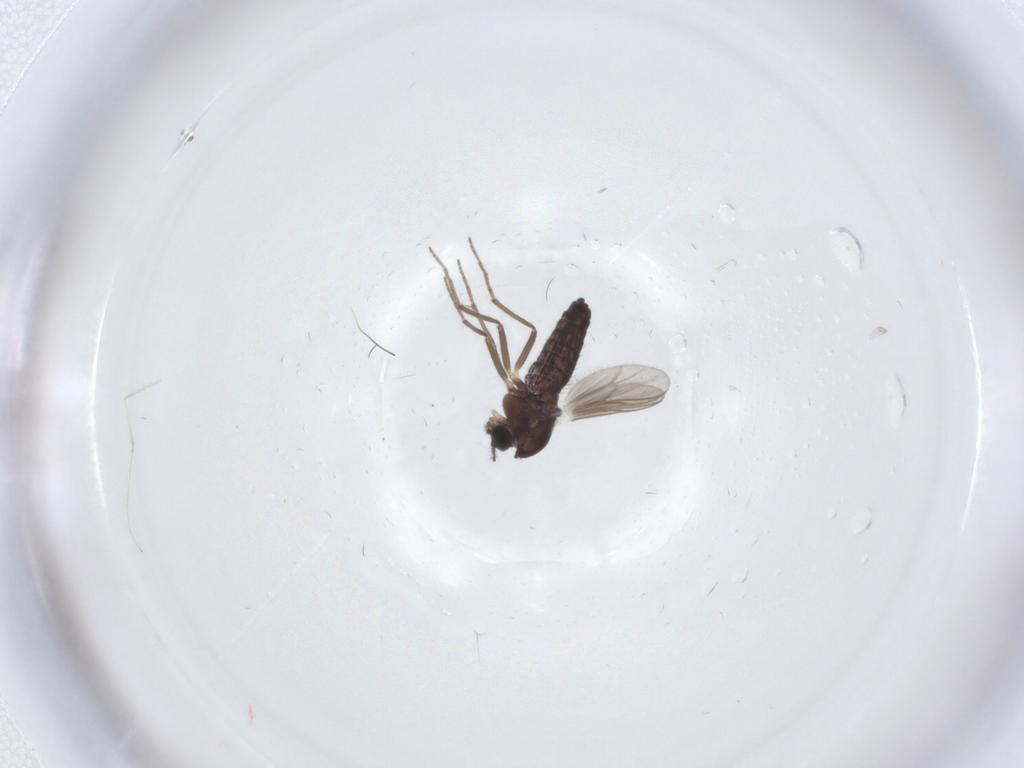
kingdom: Animalia
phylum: Arthropoda
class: Insecta
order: Diptera
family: Chironomidae
